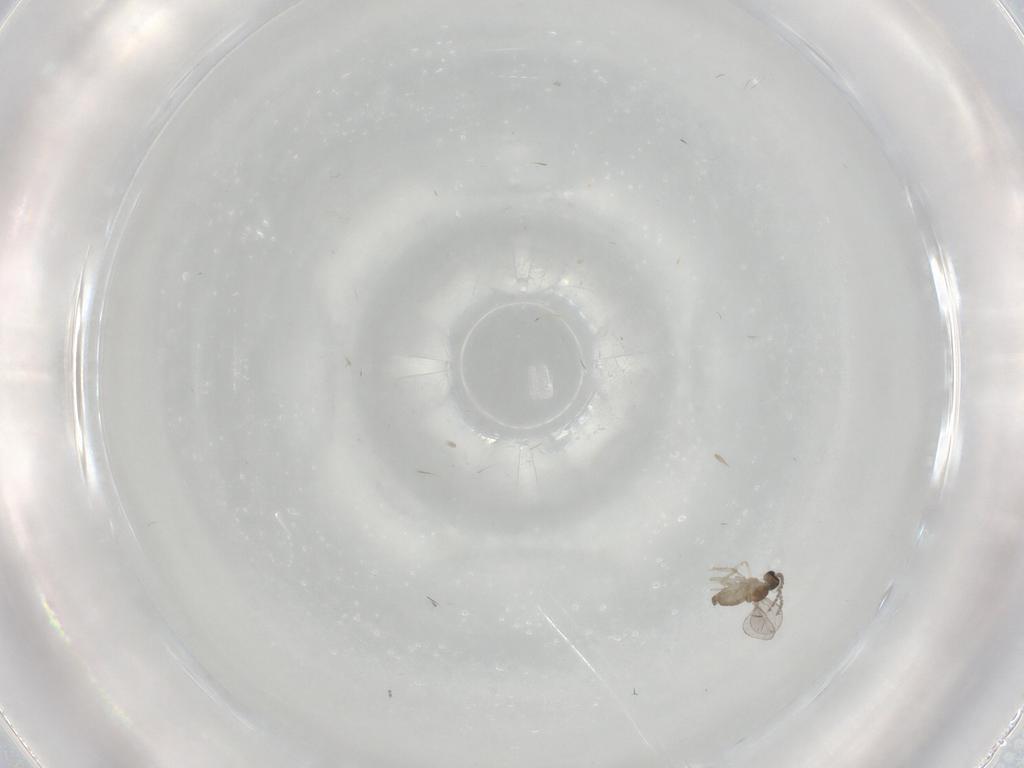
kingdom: Animalia
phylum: Arthropoda
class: Insecta
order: Diptera
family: Cecidomyiidae
